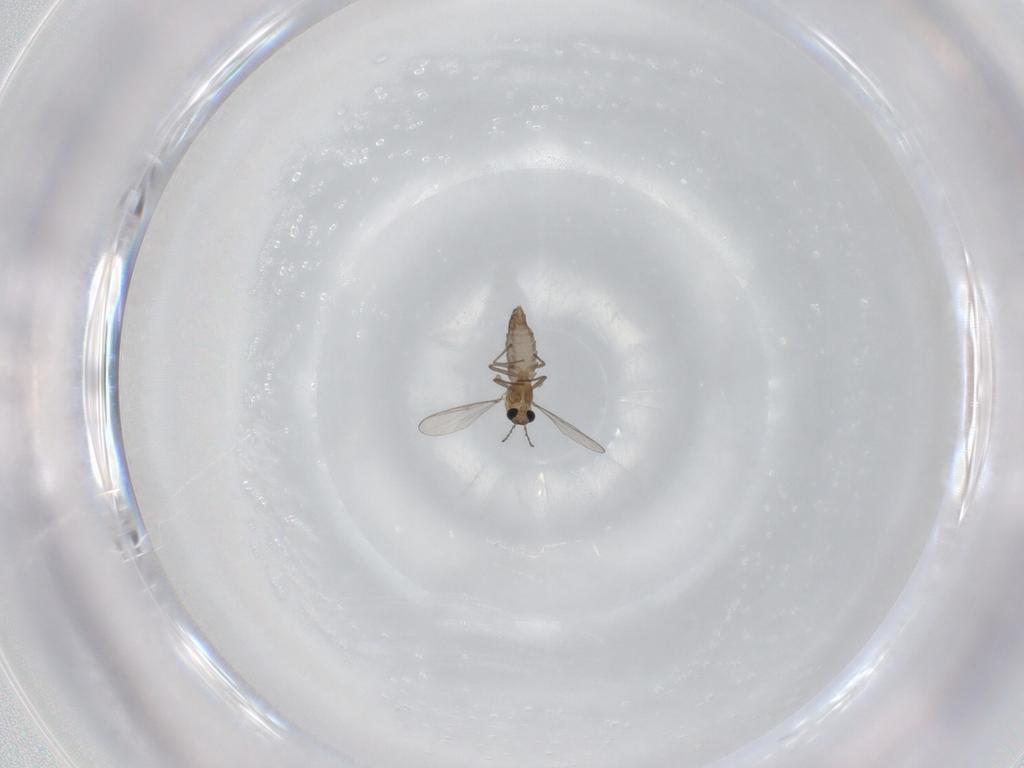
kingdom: Animalia
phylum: Arthropoda
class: Insecta
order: Diptera
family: Chironomidae
